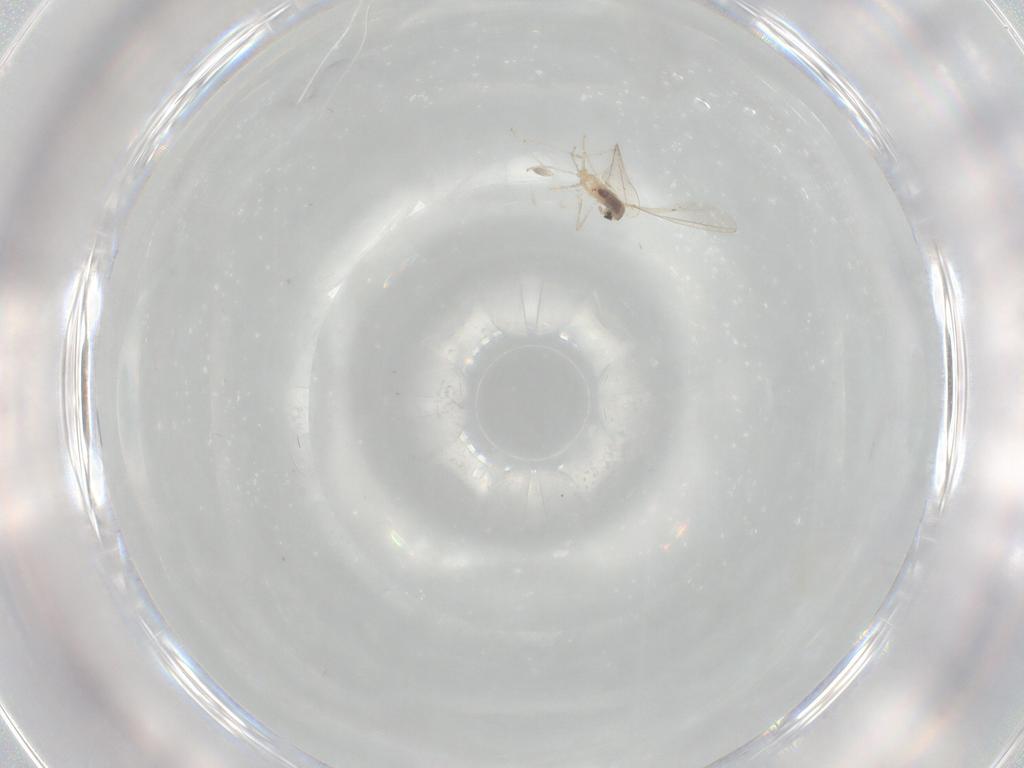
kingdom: Animalia
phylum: Arthropoda
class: Insecta
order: Diptera
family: Cecidomyiidae
